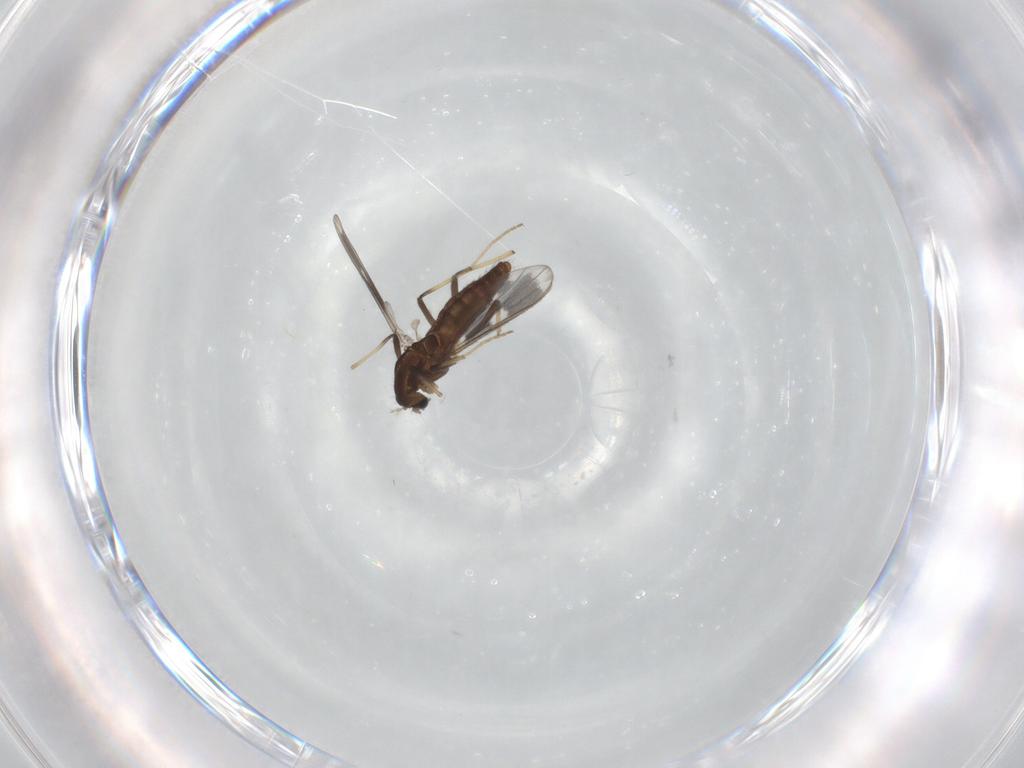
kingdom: Animalia
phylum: Arthropoda
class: Insecta
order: Diptera
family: Chironomidae
